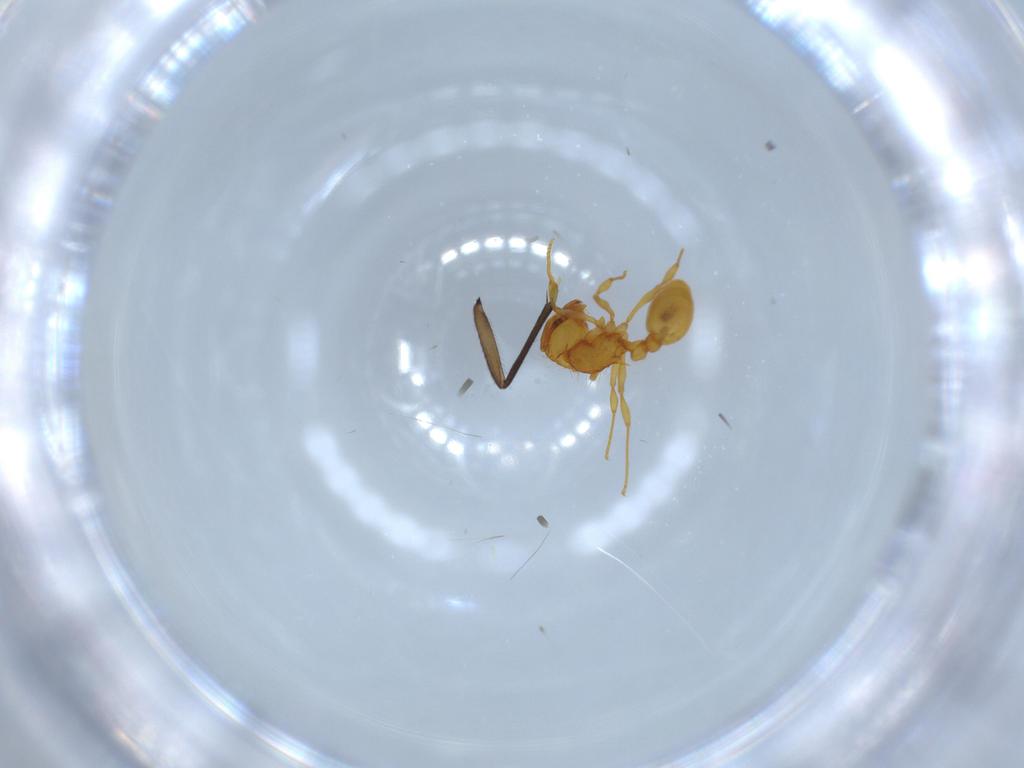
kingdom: Animalia
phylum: Arthropoda
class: Insecta
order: Hymenoptera
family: Formicidae
